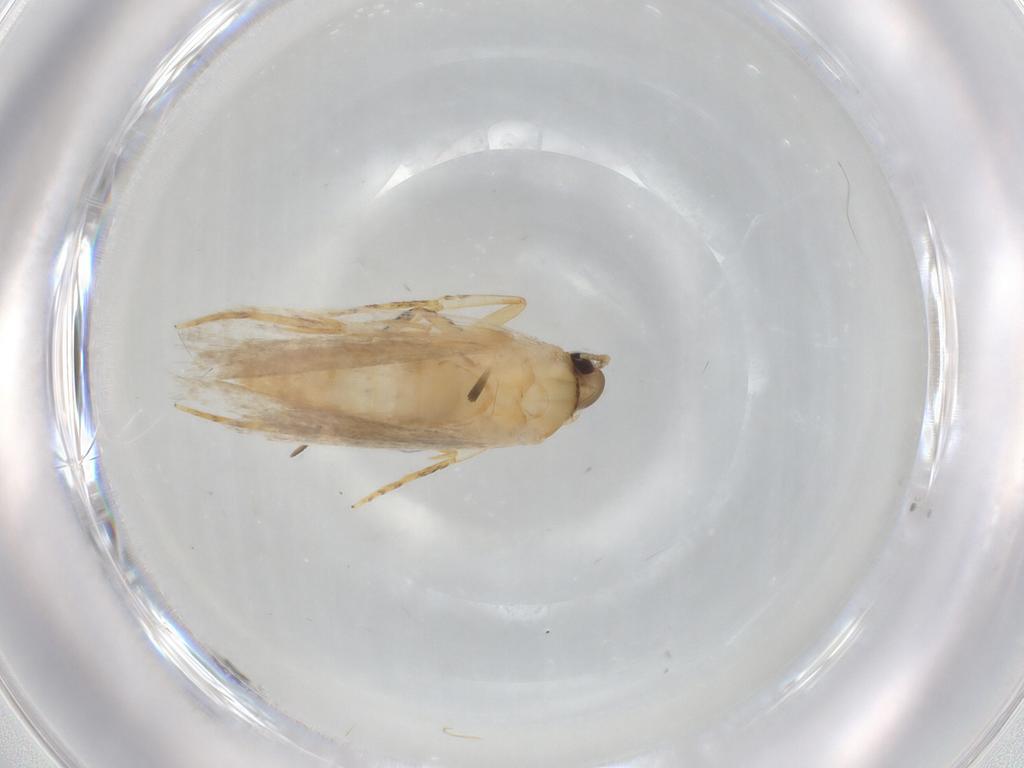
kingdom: Animalia
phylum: Arthropoda
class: Insecta
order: Lepidoptera
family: Autostichidae
